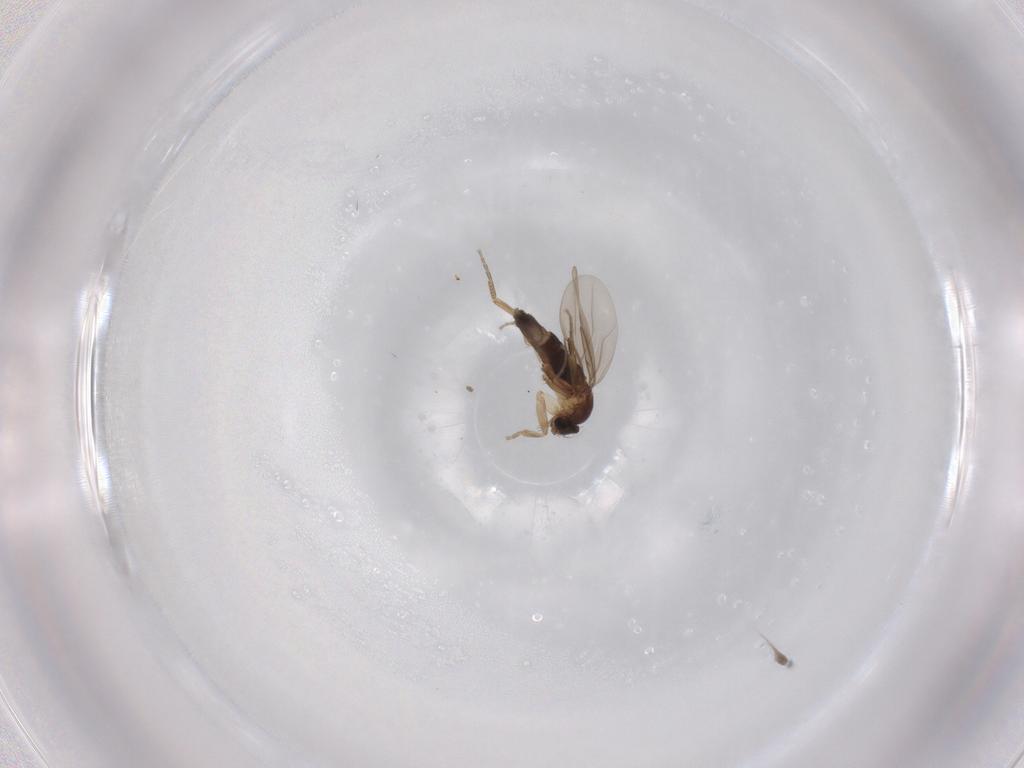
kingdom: Animalia
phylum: Arthropoda
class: Insecta
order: Diptera
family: Phoridae
